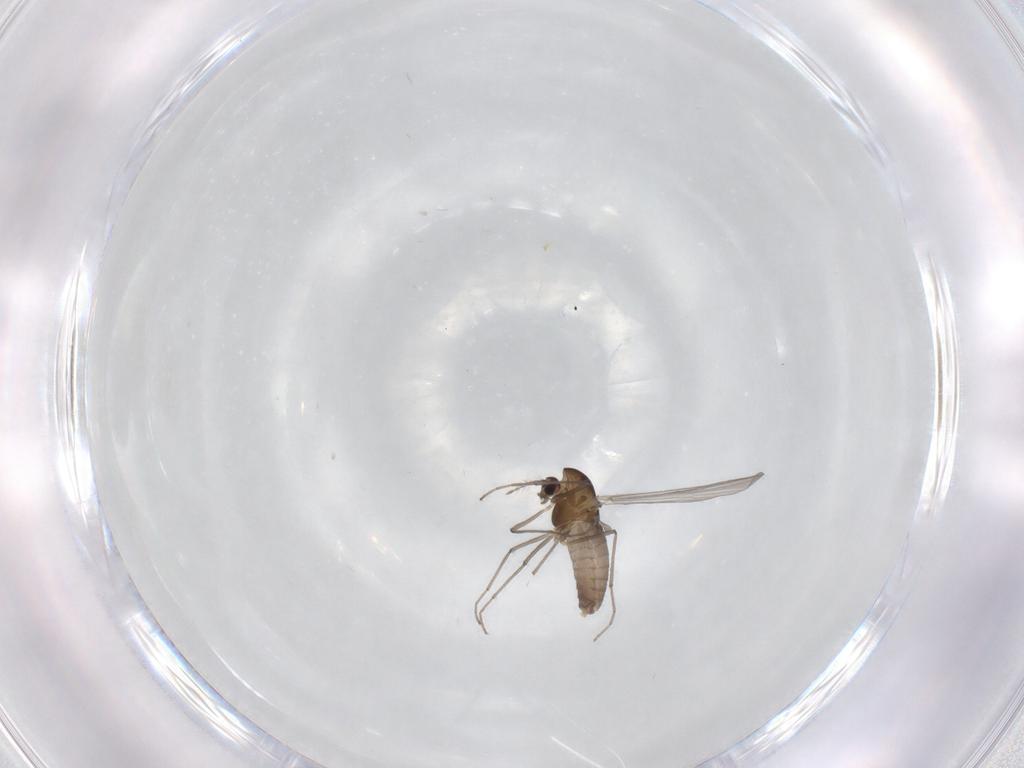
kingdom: Animalia
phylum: Arthropoda
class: Insecta
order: Diptera
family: Chironomidae
